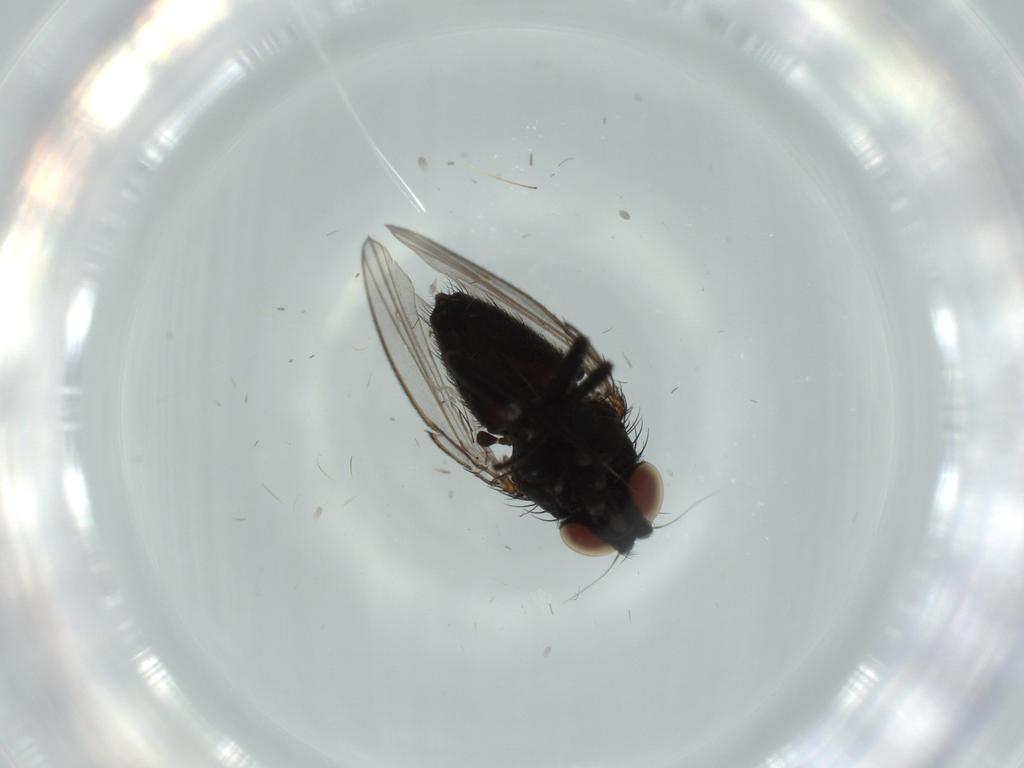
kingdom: Animalia
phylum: Arthropoda
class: Insecta
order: Diptera
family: Milichiidae
